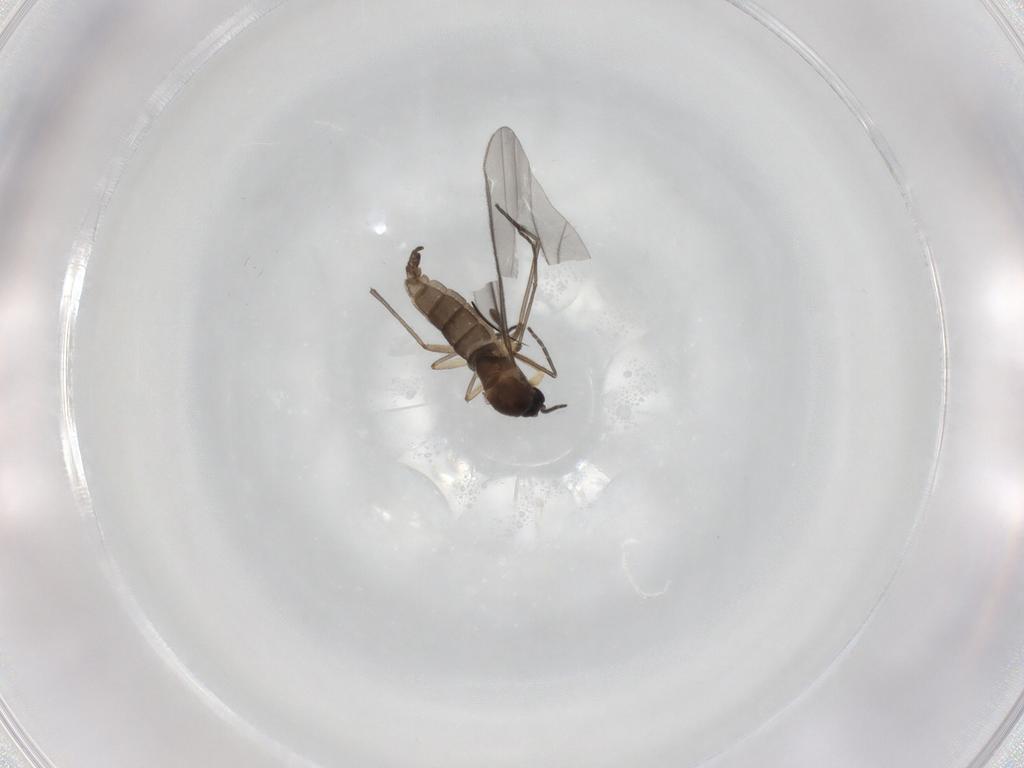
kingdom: Animalia
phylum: Arthropoda
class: Insecta
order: Diptera
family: Sciaridae
